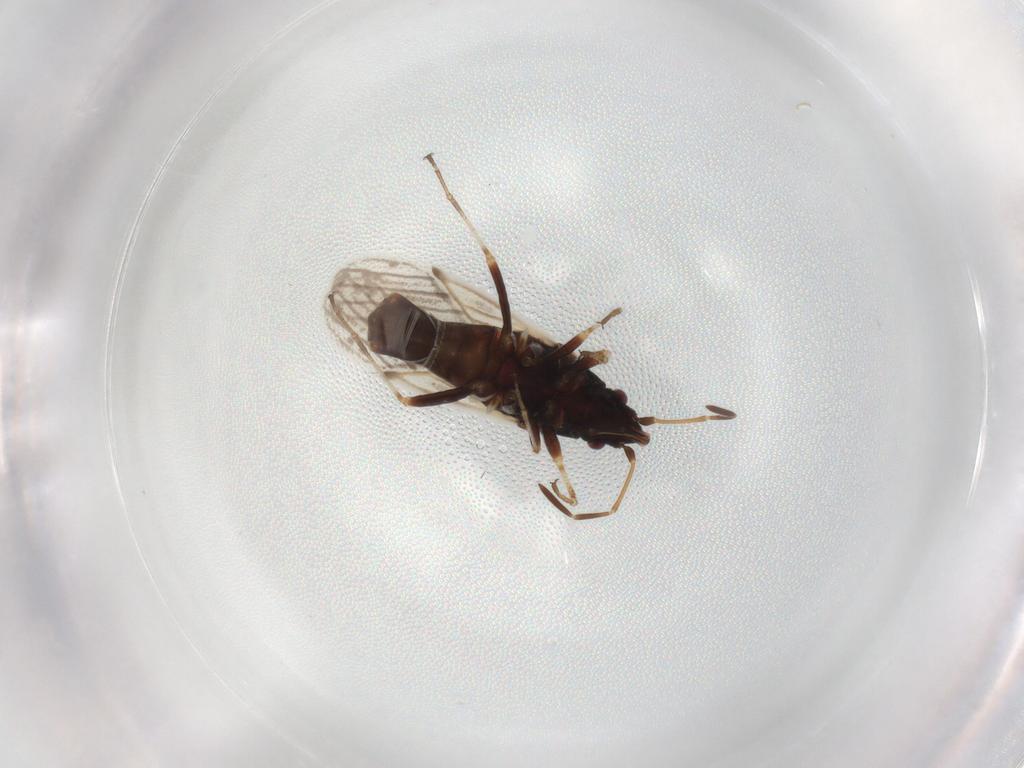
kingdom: Animalia
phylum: Arthropoda
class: Insecta
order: Hemiptera
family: Oxycarenidae
